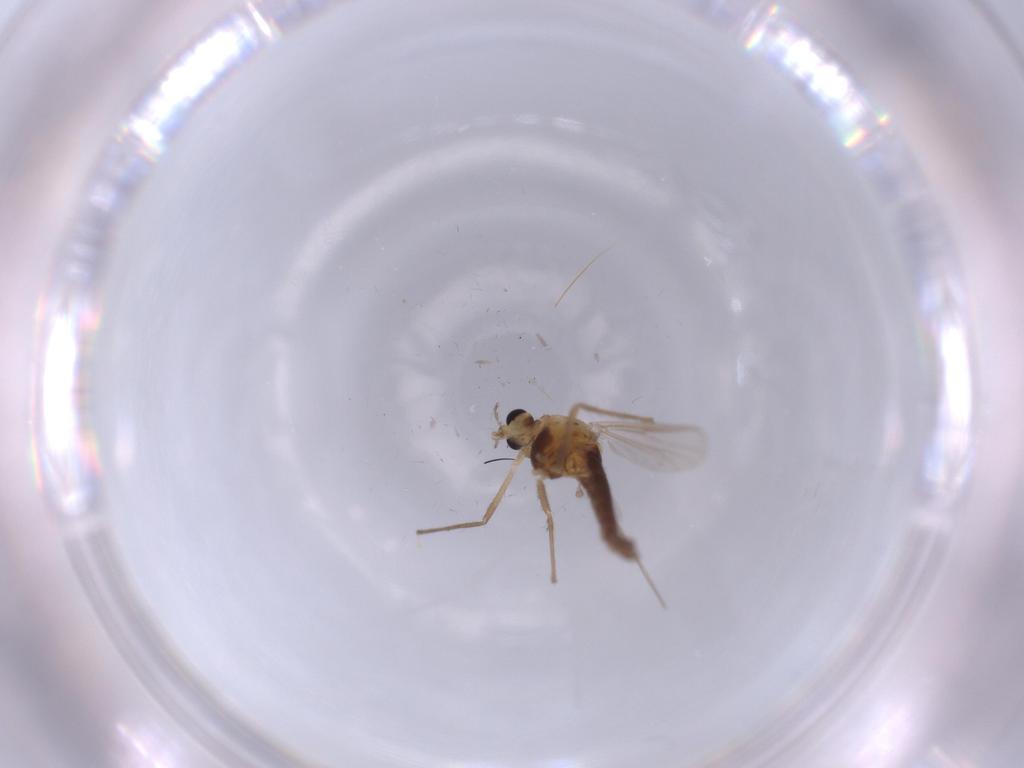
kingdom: Animalia
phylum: Arthropoda
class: Insecta
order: Diptera
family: Chironomidae
